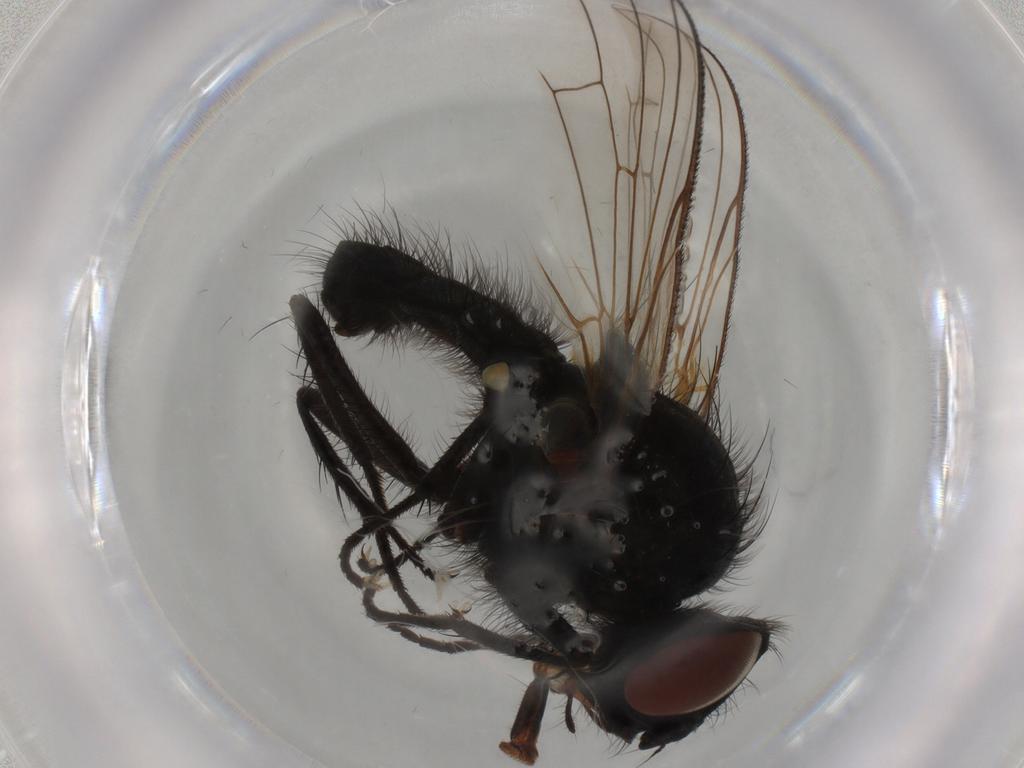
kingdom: Animalia
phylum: Arthropoda
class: Insecta
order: Diptera
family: Anthomyiidae
